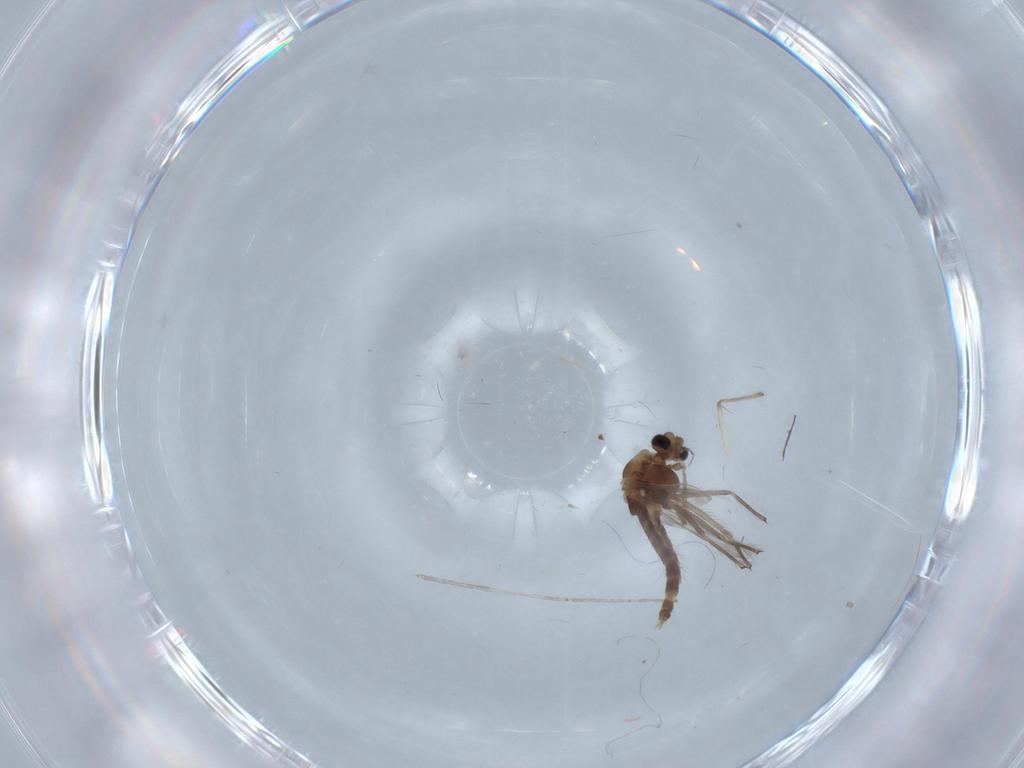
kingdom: Animalia
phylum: Arthropoda
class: Insecta
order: Diptera
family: Chironomidae
